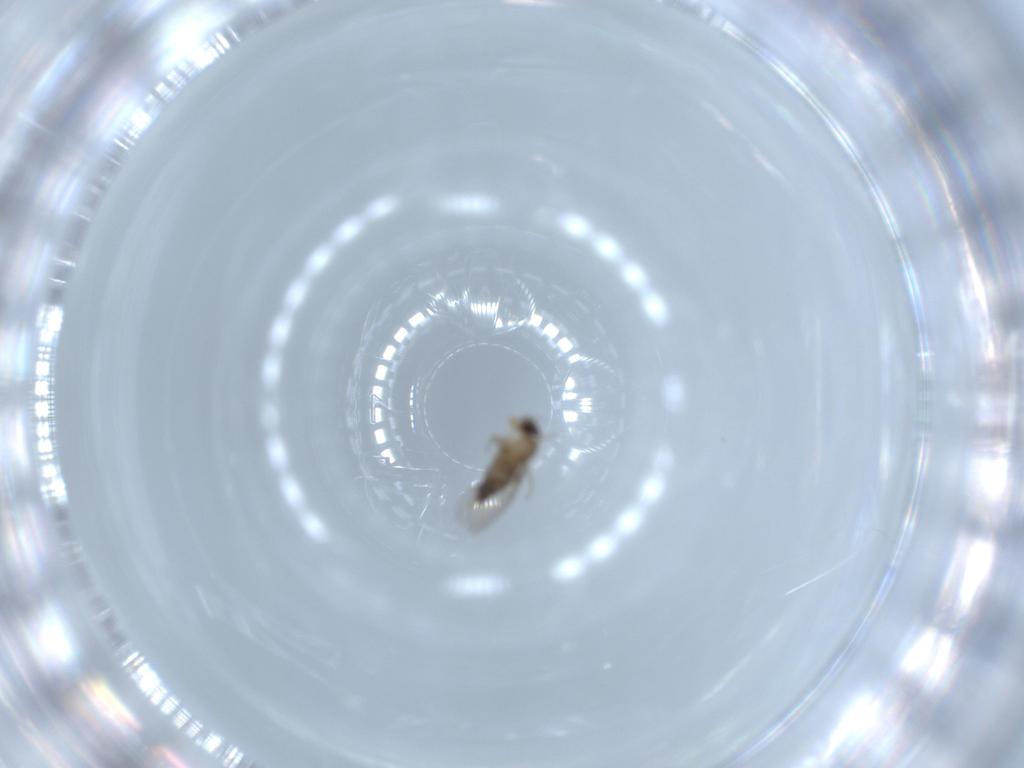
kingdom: Animalia
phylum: Arthropoda
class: Insecta
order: Diptera
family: Phoridae
